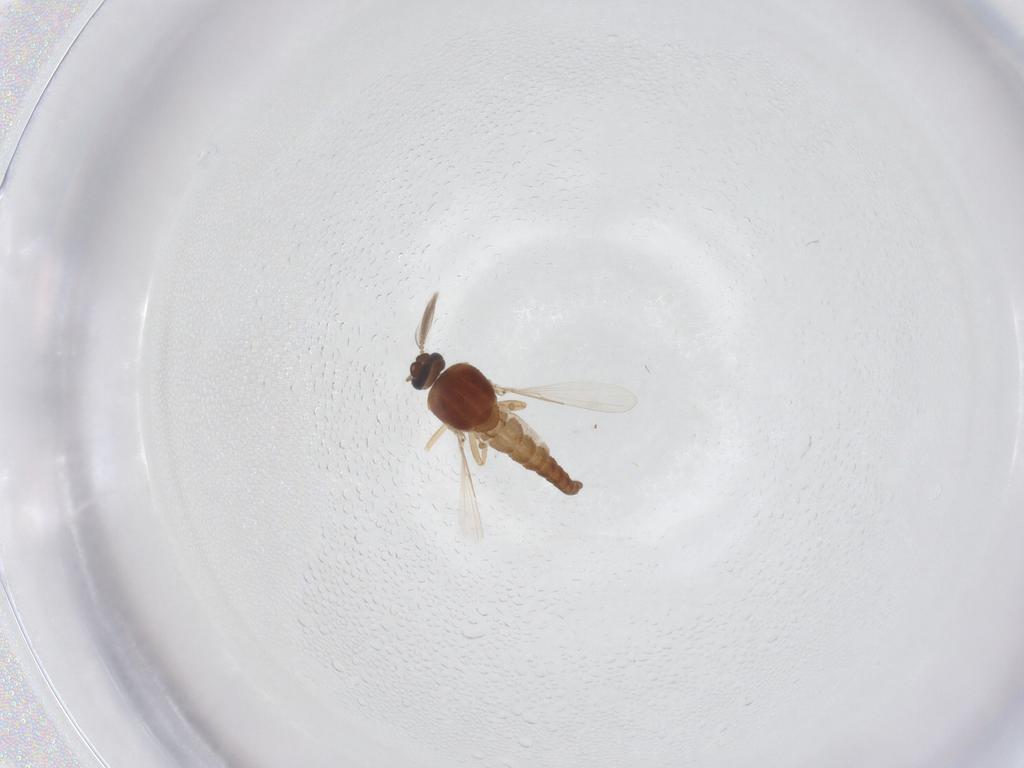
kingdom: Animalia
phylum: Arthropoda
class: Insecta
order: Diptera
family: Ceratopogonidae
